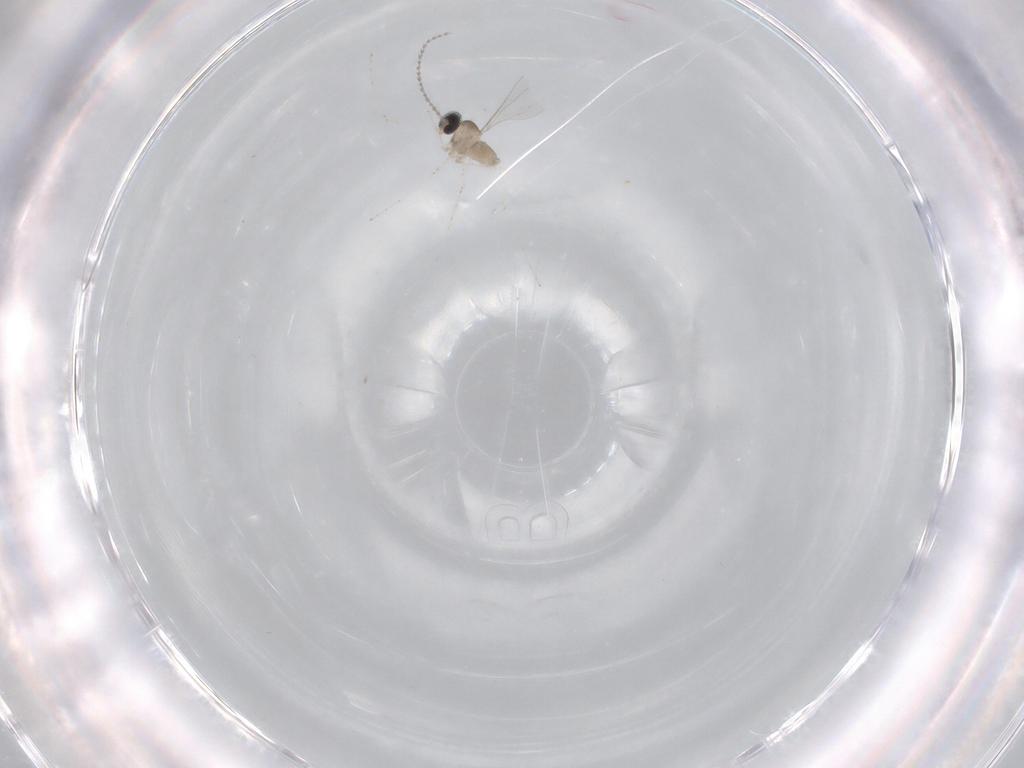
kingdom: Animalia
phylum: Arthropoda
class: Insecta
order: Diptera
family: Cecidomyiidae
